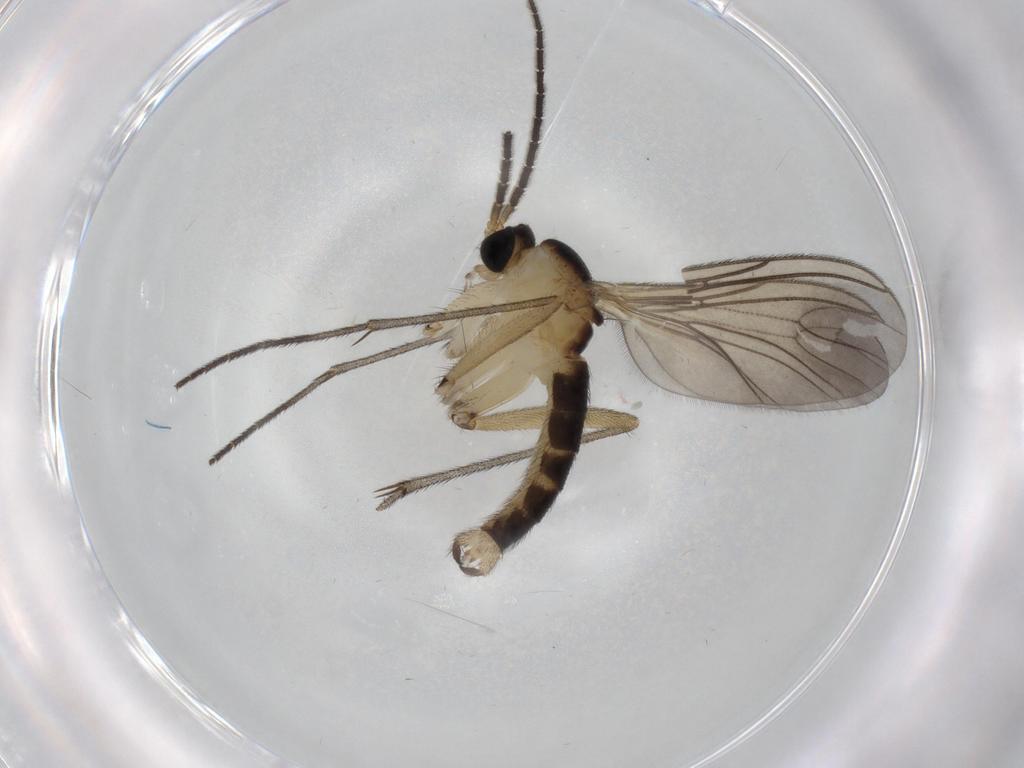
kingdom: Animalia
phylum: Arthropoda
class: Insecta
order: Diptera
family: Sciaridae
